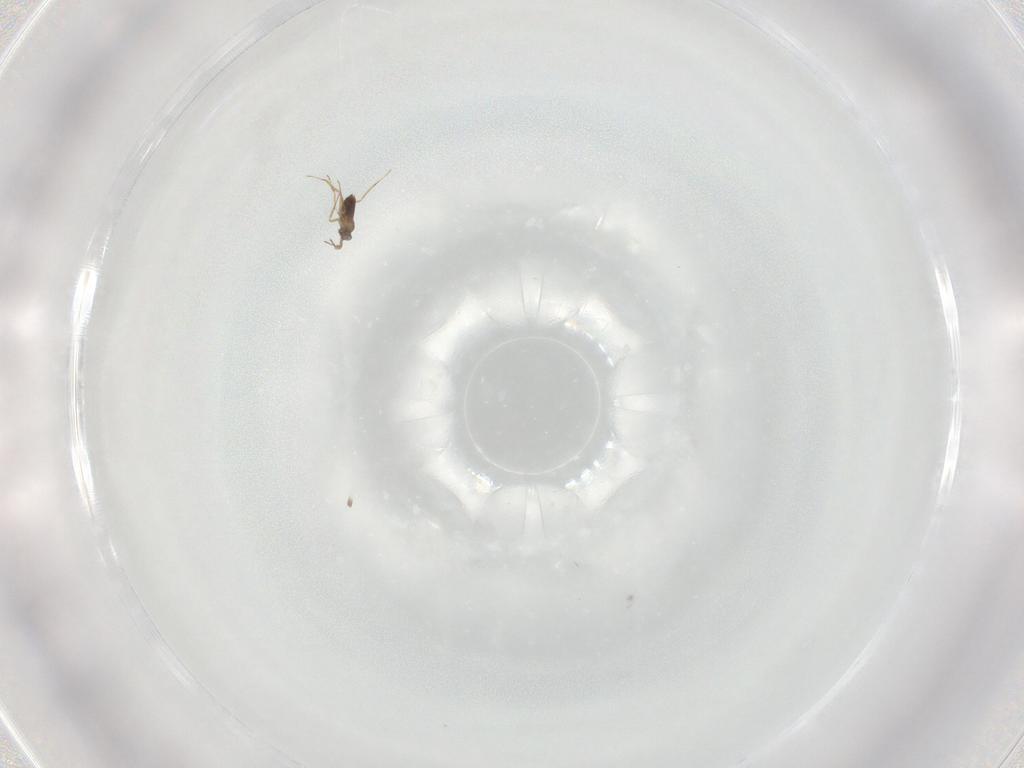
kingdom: Animalia
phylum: Arthropoda
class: Insecta
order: Hymenoptera
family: Mymaridae
